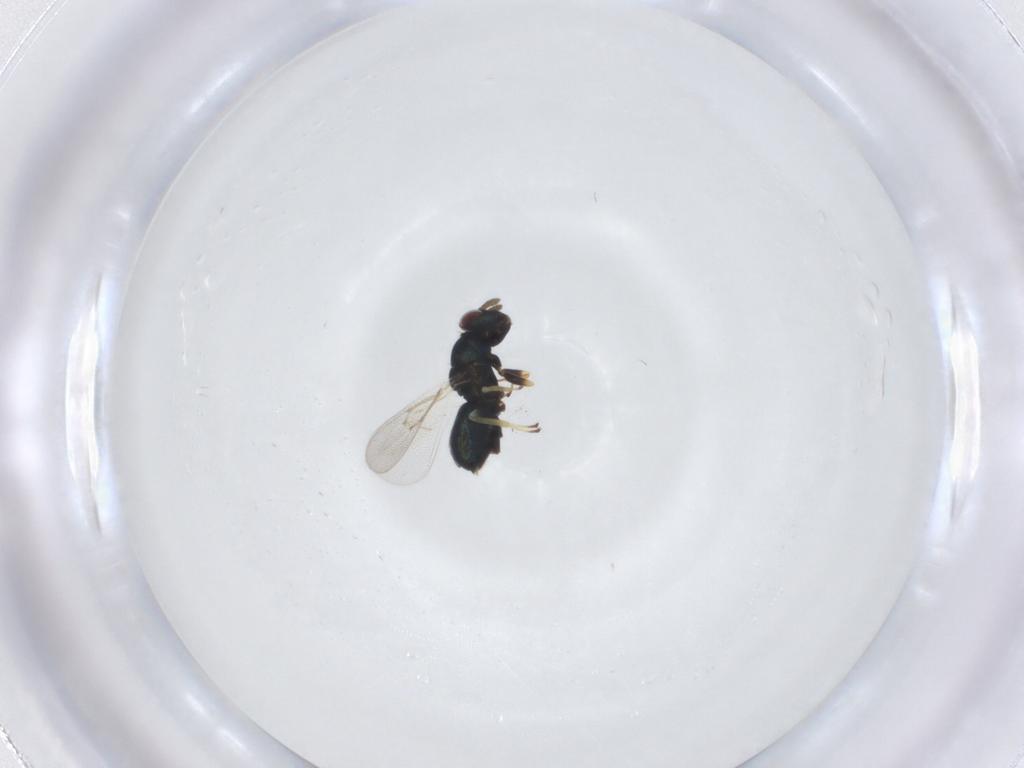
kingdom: Animalia
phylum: Arthropoda
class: Insecta
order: Hymenoptera
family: Eulophidae
